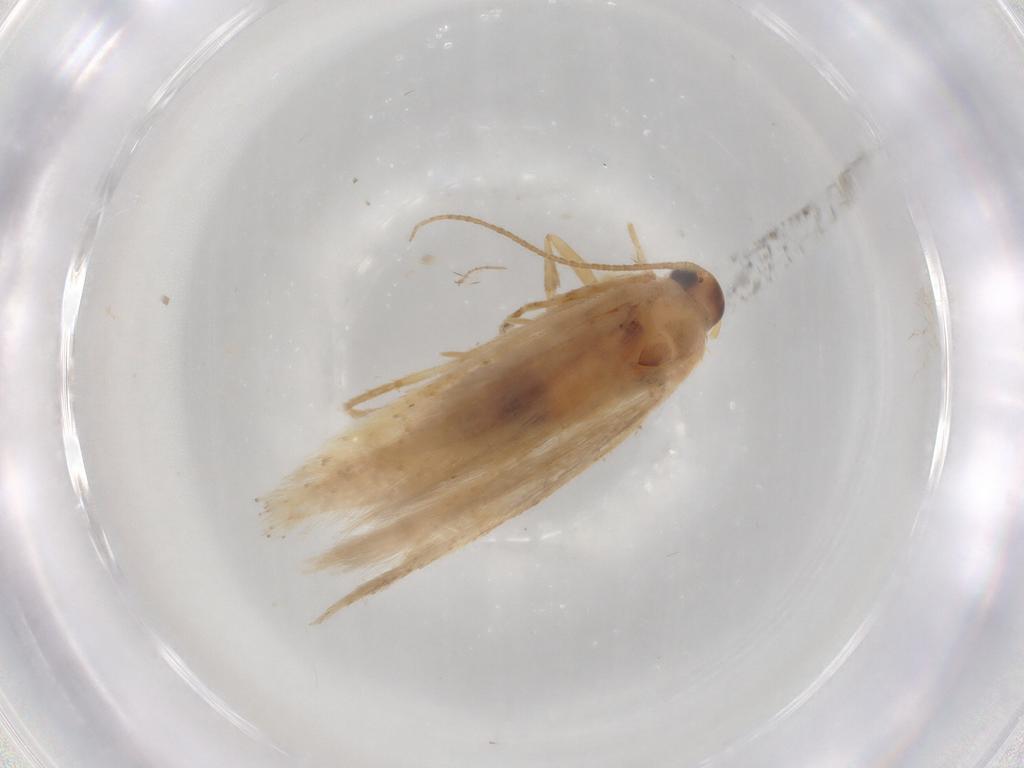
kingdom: Animalia
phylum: Arthropoda
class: Insecta
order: Lepidoptera
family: Gelechiidae
